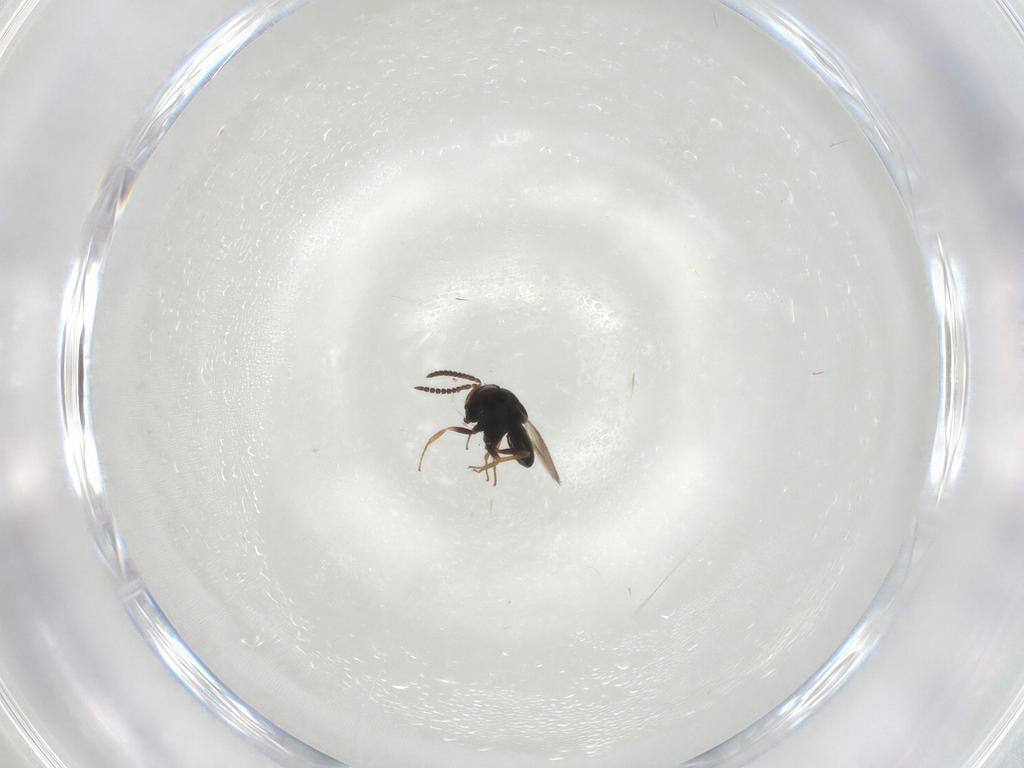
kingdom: Animalia
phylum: Arthropoda
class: Insecta
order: Hymenoptera
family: Scelionidae
